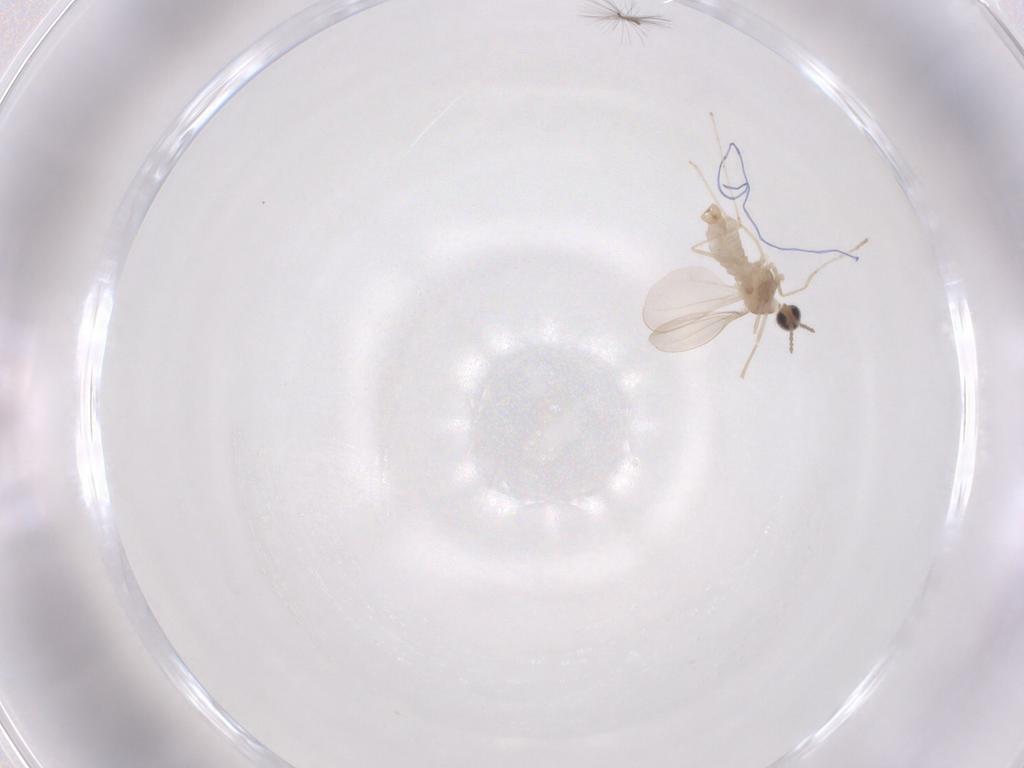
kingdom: Animalia
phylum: Arthropoda
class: Insecta
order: Diptera
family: Cecidomyiidae
